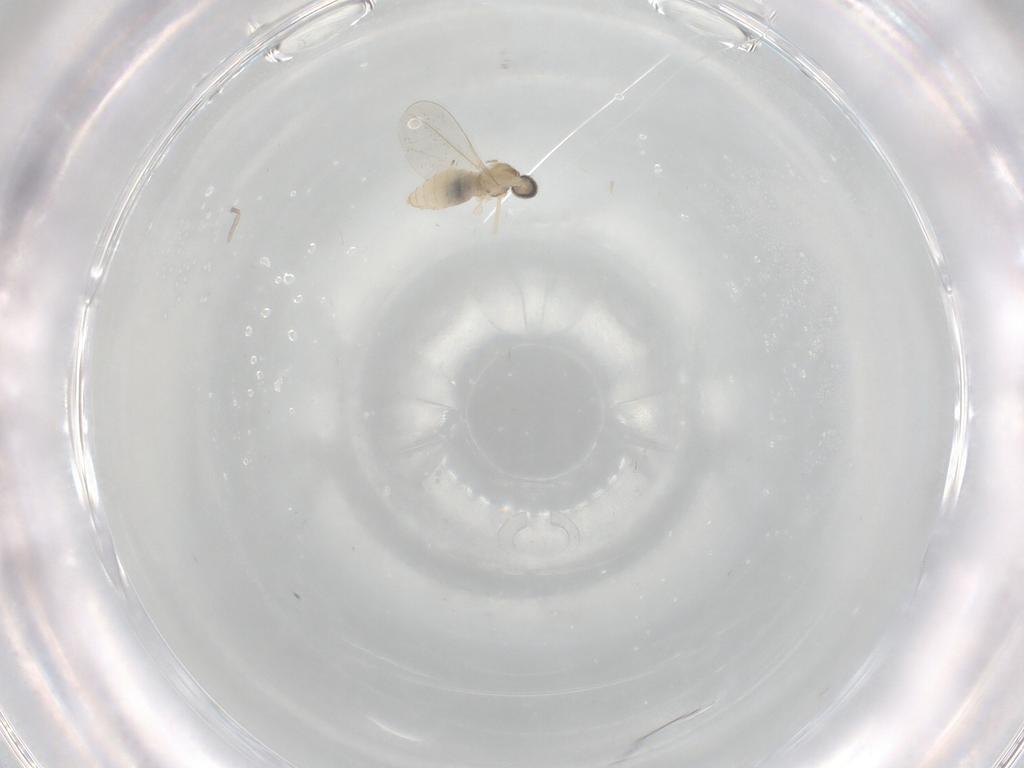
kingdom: Animalia
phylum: Arthropoda
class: Insecta
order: Diptera
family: Cecidomyiidae
